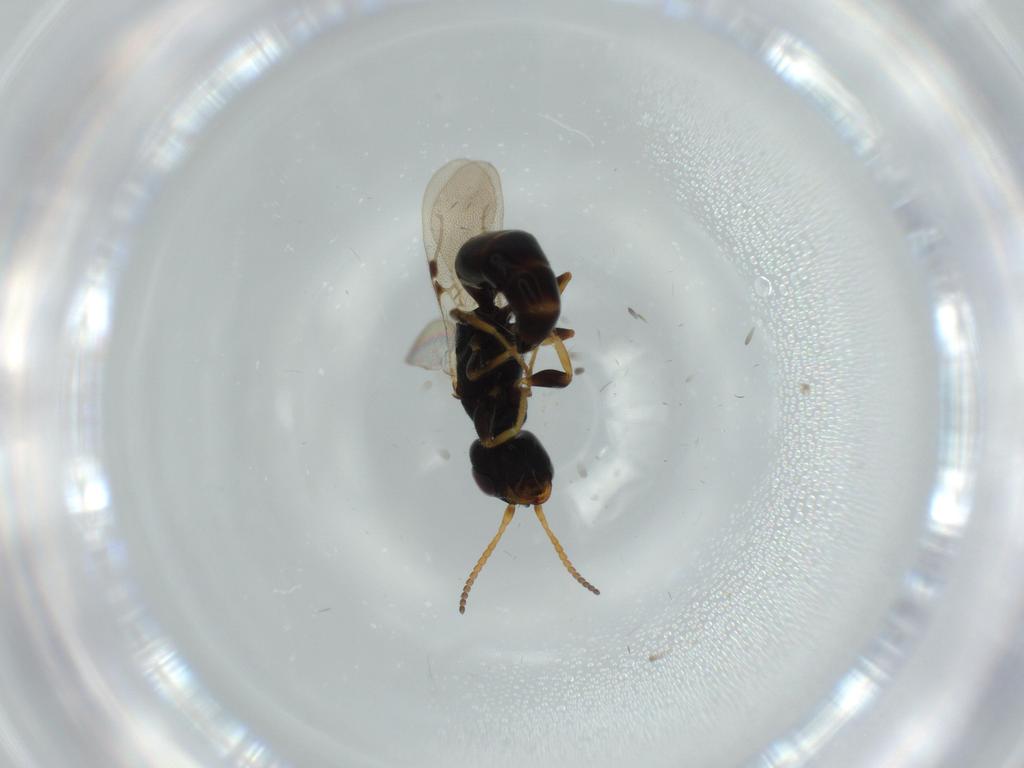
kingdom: Animalia
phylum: Arthropoda
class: Insecta
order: Hymenoptera
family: Bethylidae
